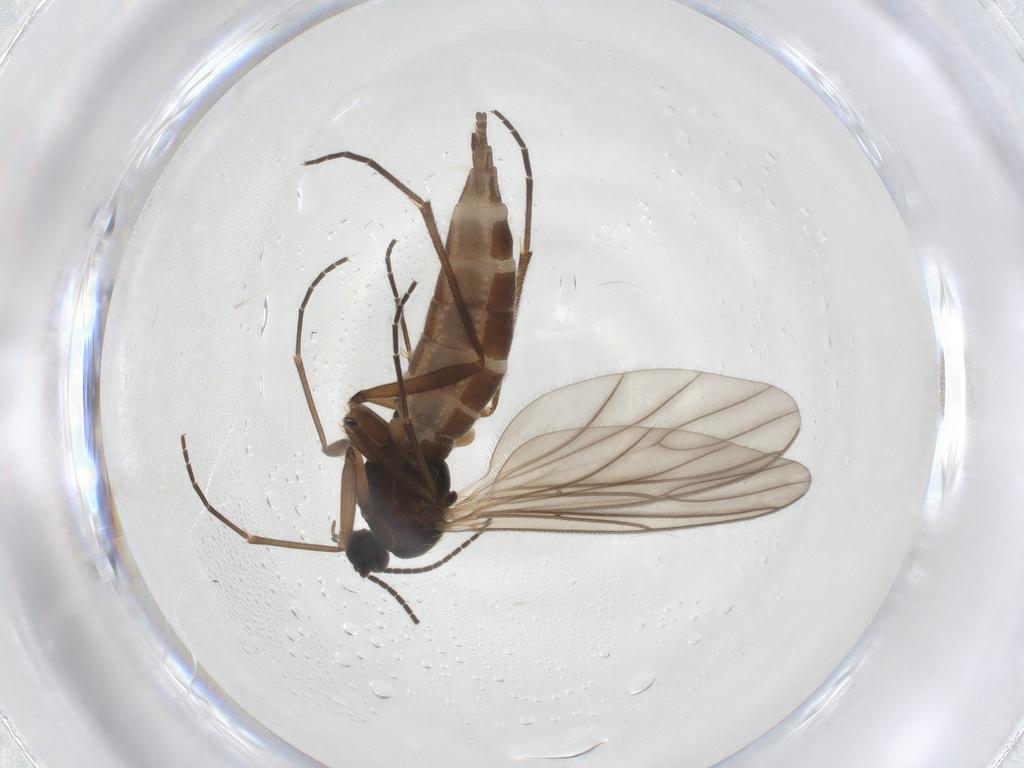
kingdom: Animalia
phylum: Arthropoda
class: Insecta
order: Diptera
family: Sciaridae
